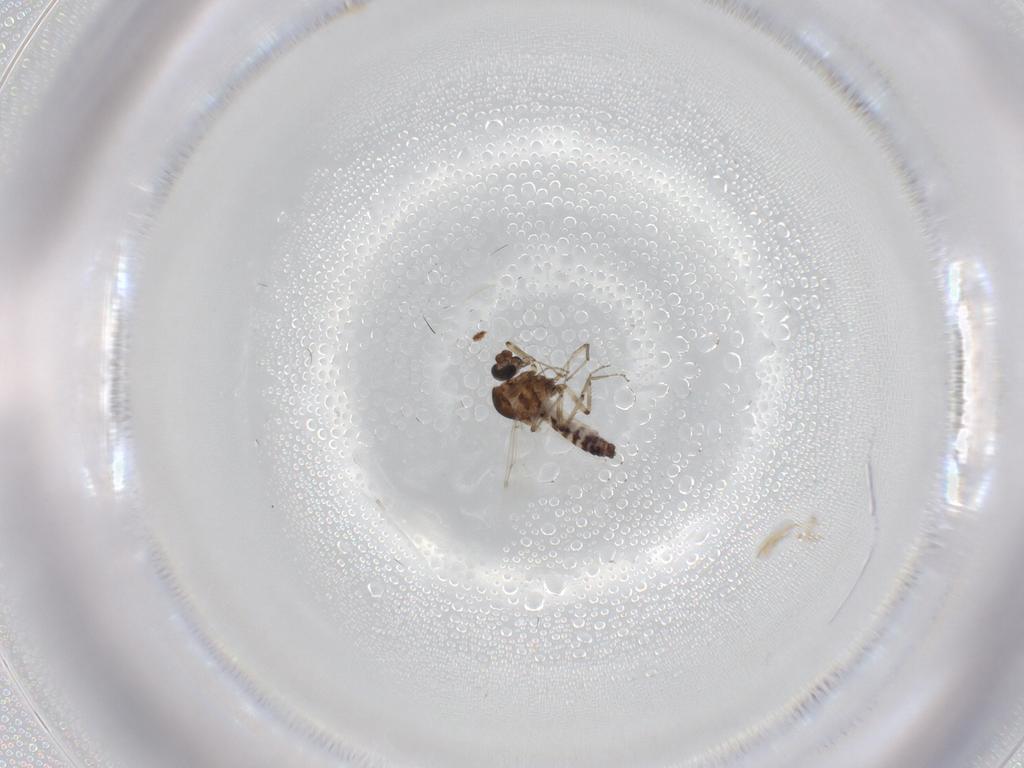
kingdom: Animalia
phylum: Arthropoda
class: Insecta
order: Diptera
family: Ceratopogonidae
